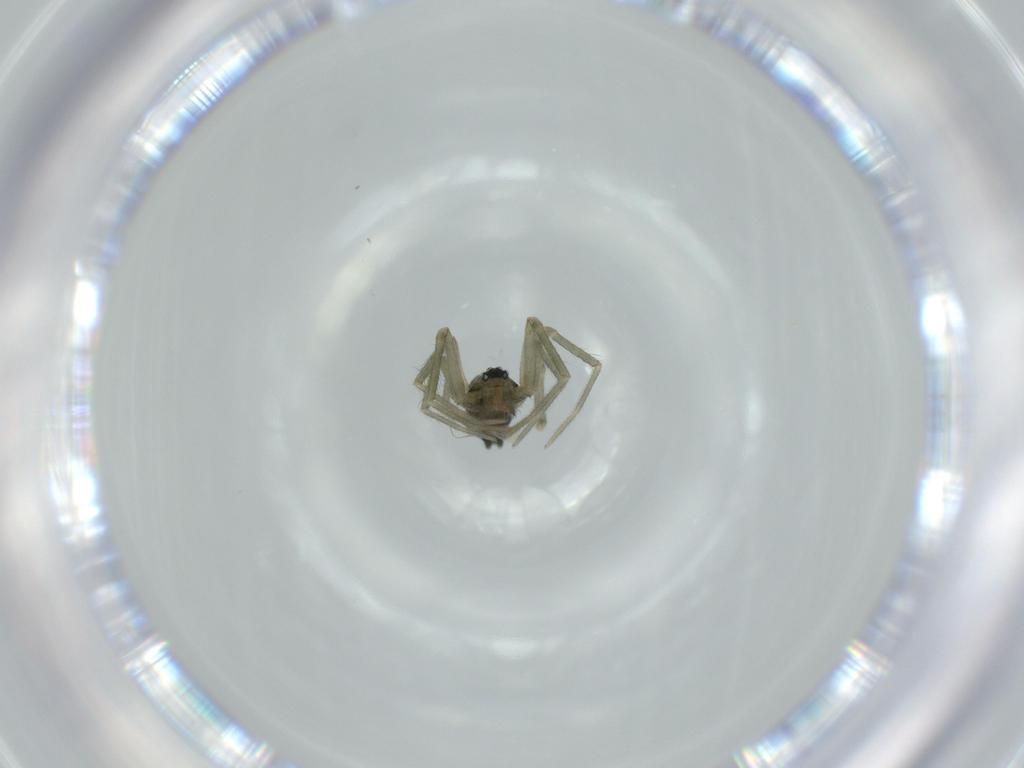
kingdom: Animalia
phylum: Arthropoda
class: Arachnida
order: Araneae
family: Linyphiidae
